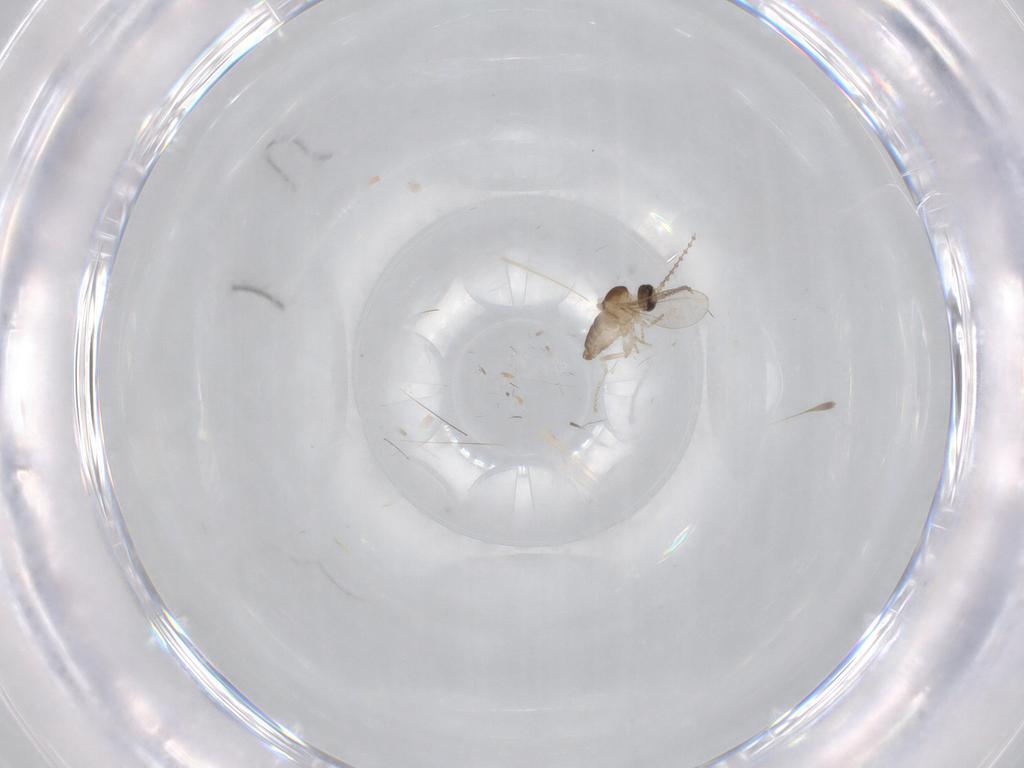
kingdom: Animalia
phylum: Arthropoda
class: Insecta
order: Diptera
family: Cecidomyiidae
